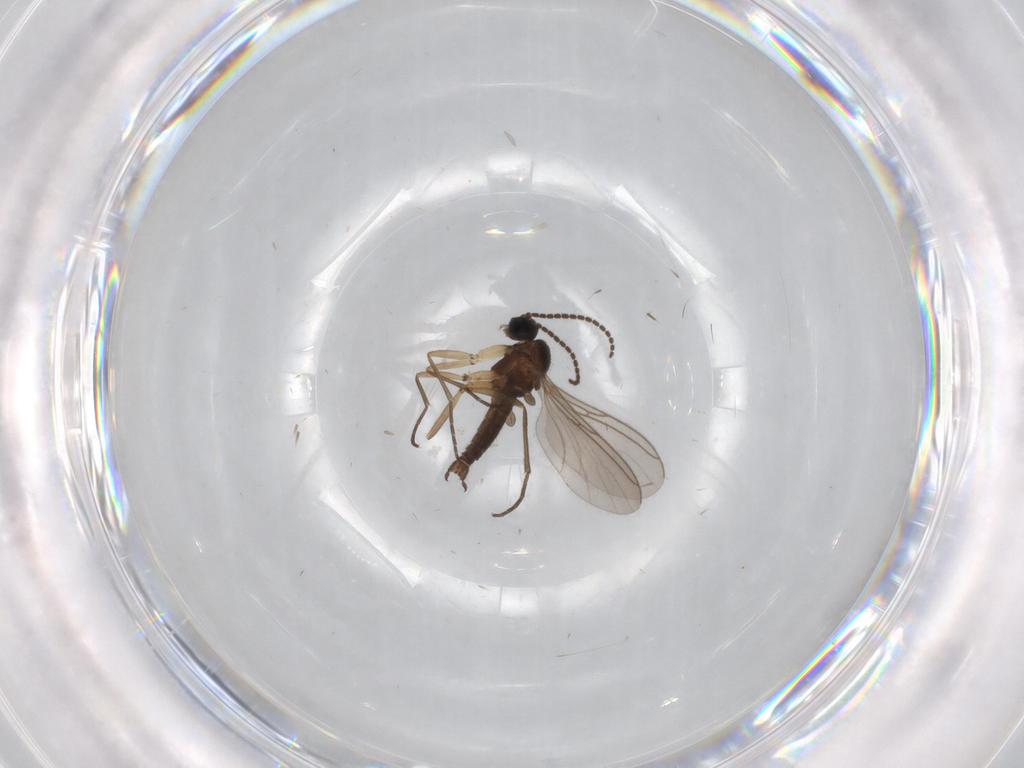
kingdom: Animalia
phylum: Arthropoda
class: Insecta
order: Diptera
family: Sciaridae
